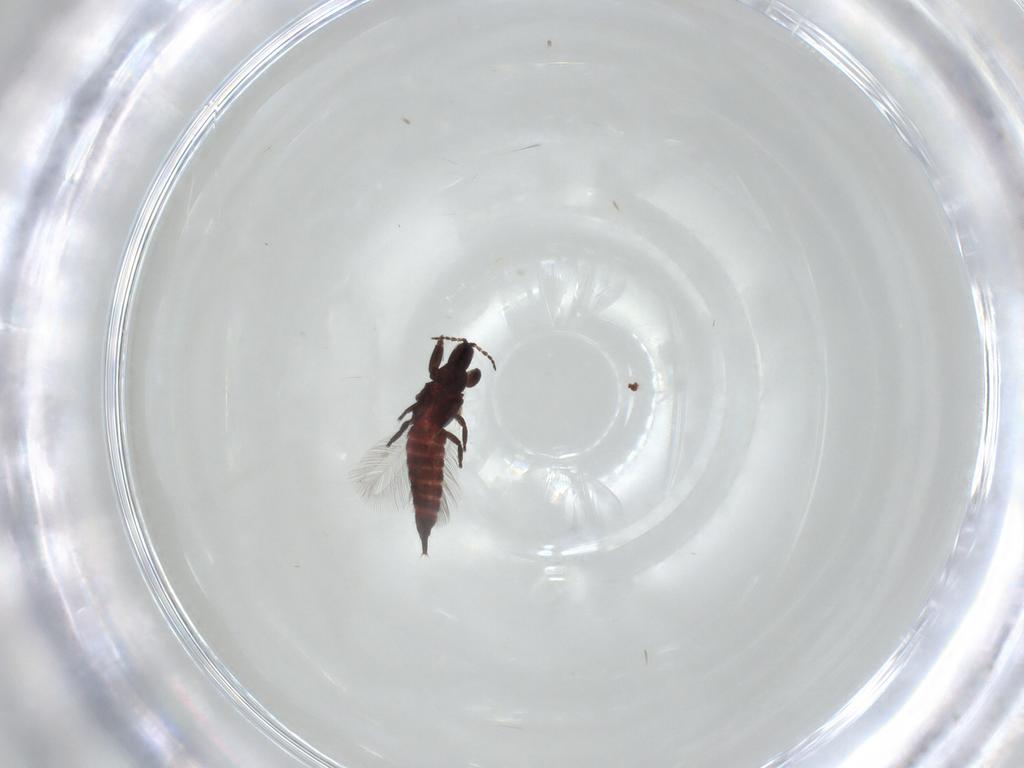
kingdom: Animalia
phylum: Arthropoda
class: Insecta
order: Thysanoptera
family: Phlaeothripidae
